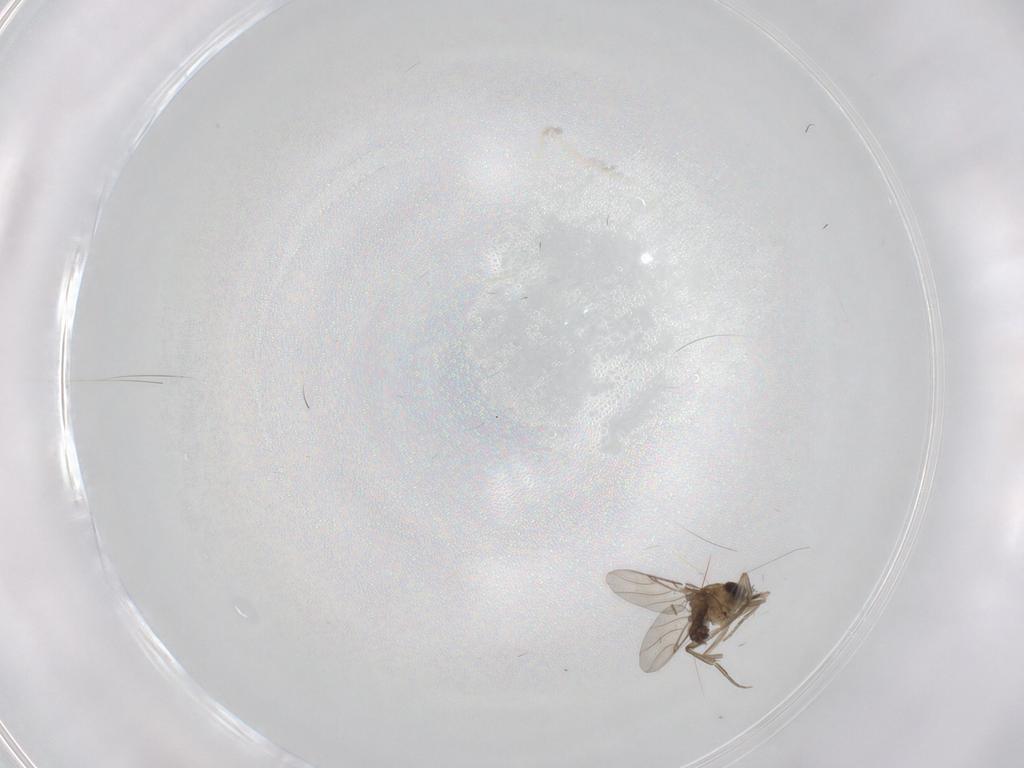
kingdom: Animalia
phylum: Arthropoda
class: Insecta
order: Diptera
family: Phoridae
